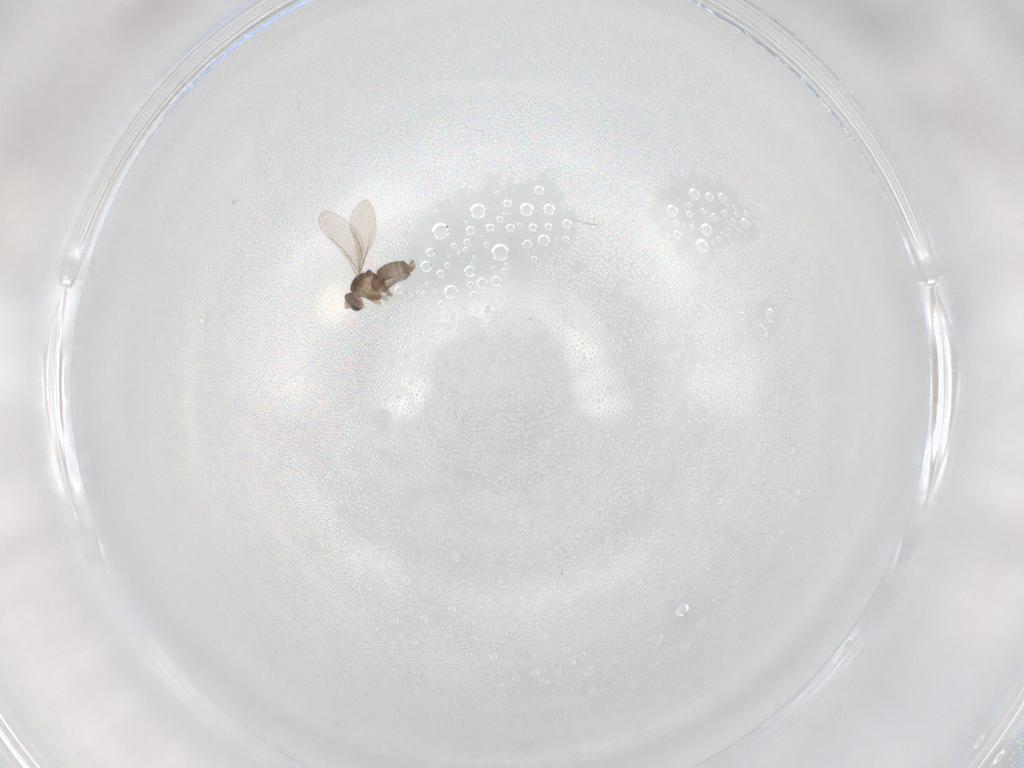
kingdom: Animalia
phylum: Arthropoda
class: Insecta
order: Diptera
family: Cecidomyiidae
